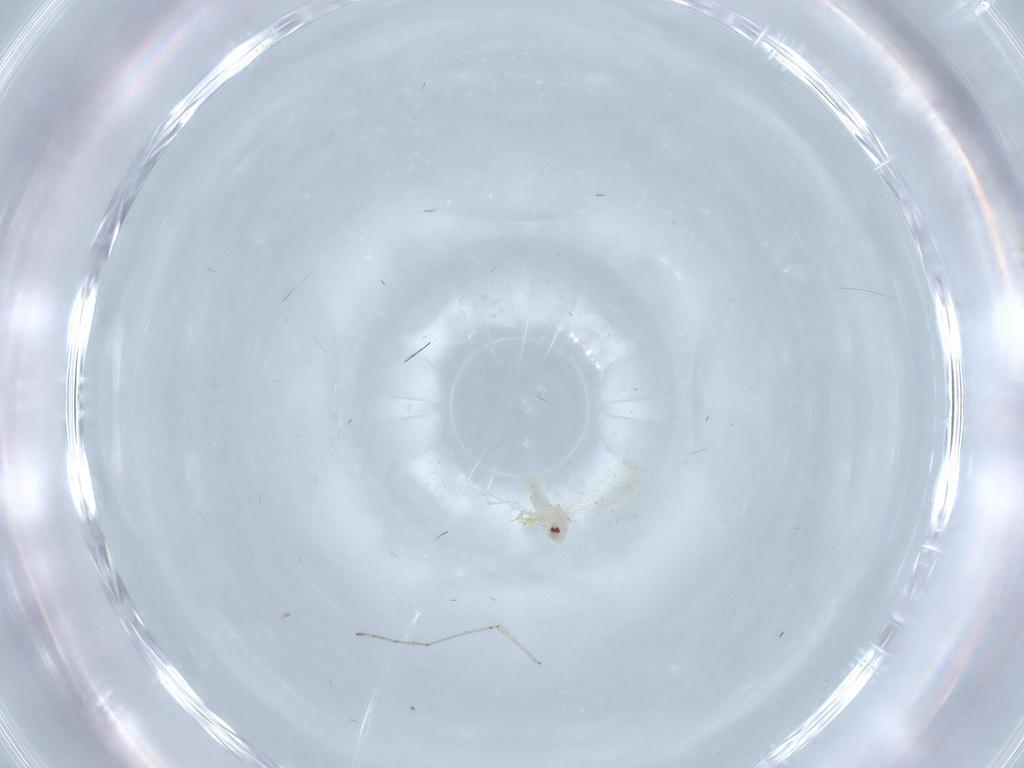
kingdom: Animalia
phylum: Arthropoda
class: Insecta
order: Hemiptera
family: Aleyrodidae
